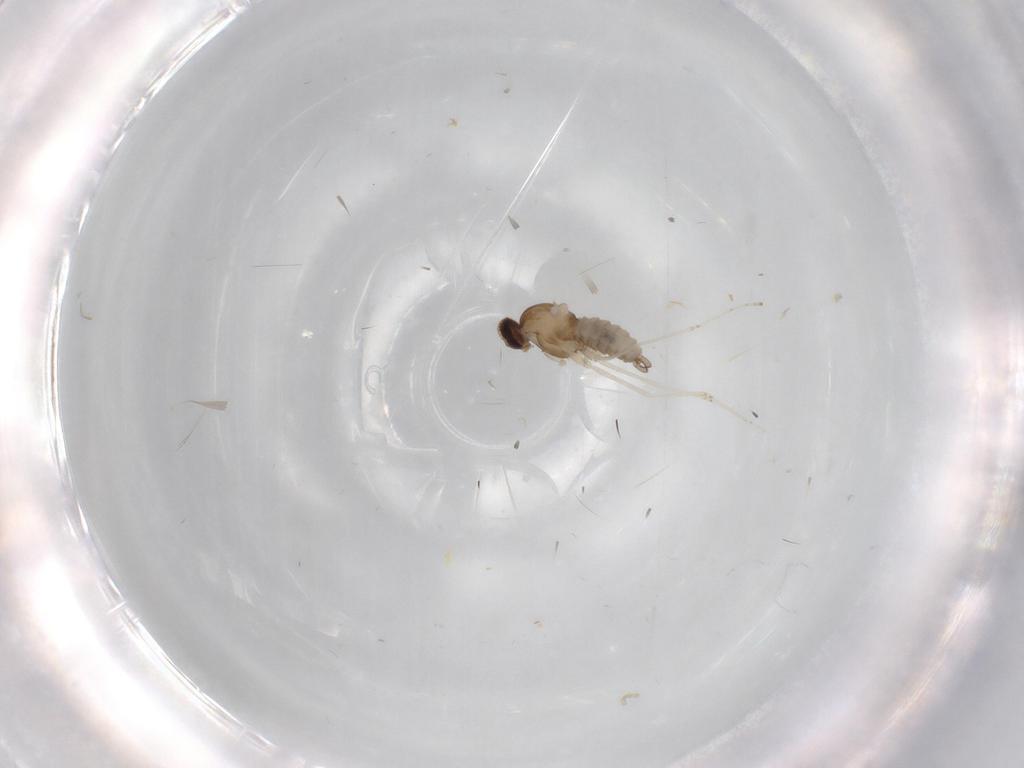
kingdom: Animalia
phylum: Arthropoda
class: Insecta
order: Diptera
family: Cecidomyiidae
